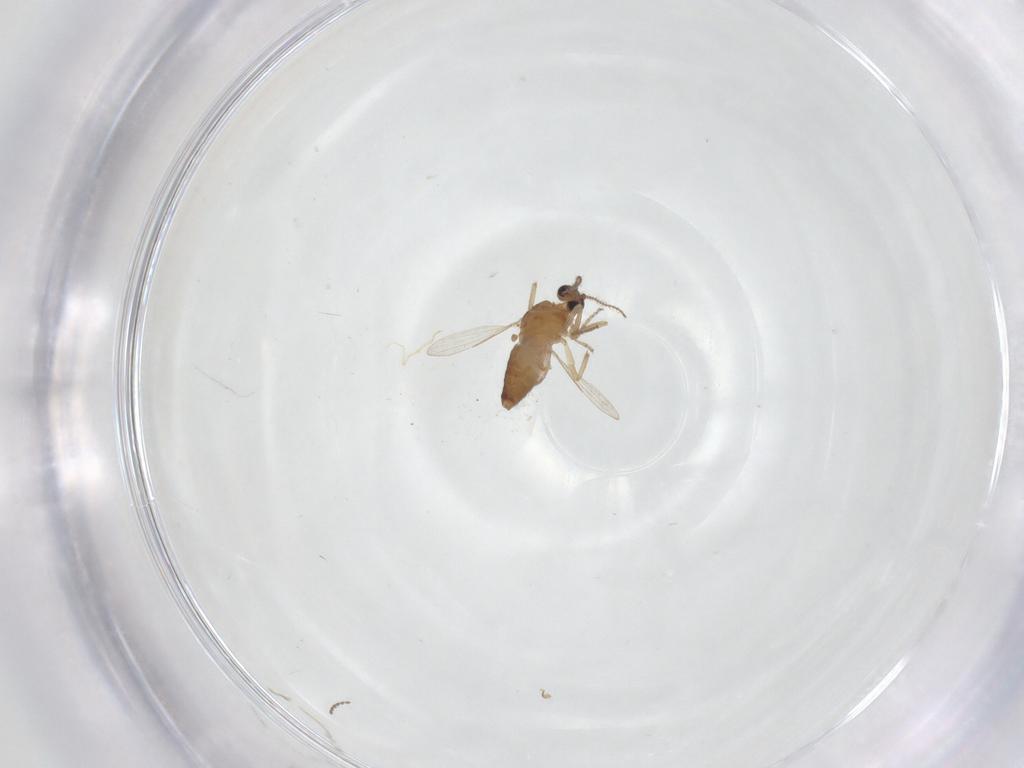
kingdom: Animalia
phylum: Arthropoda
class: Insecta
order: Diptera
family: Ceratopogonidae
